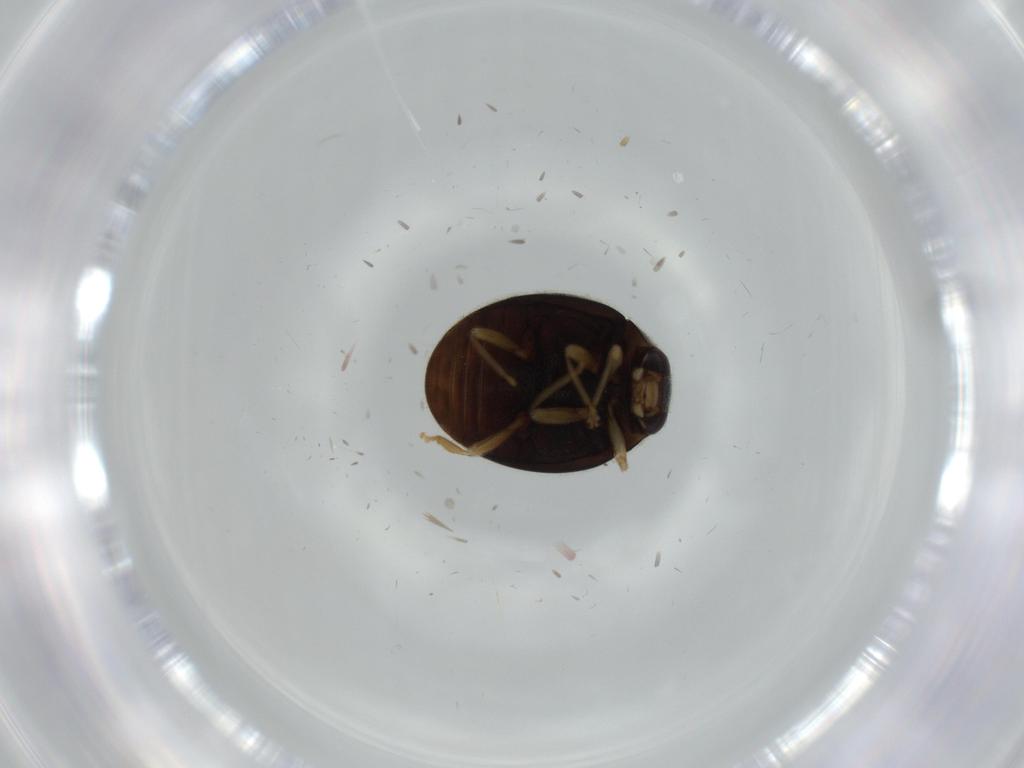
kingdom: Animalia
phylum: Arthropoda
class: Insecta
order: Coleoptera
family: Coccinellidae
